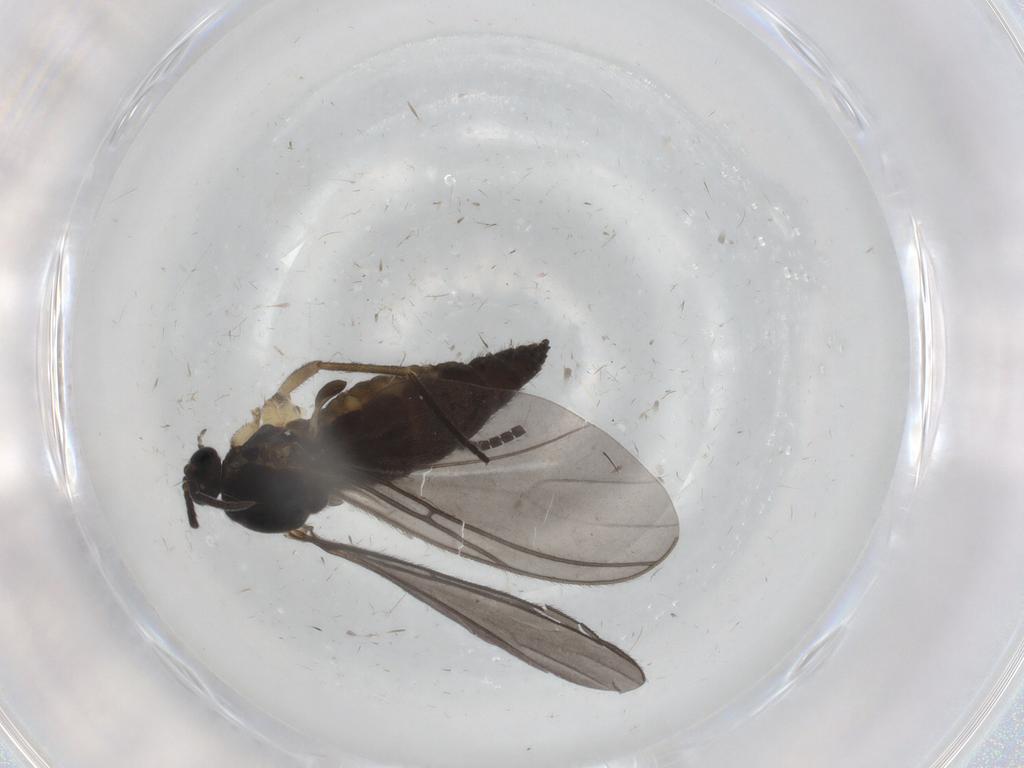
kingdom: Animalia
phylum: Arthropoda
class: Insecta
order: Diptera
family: Sciaridae
